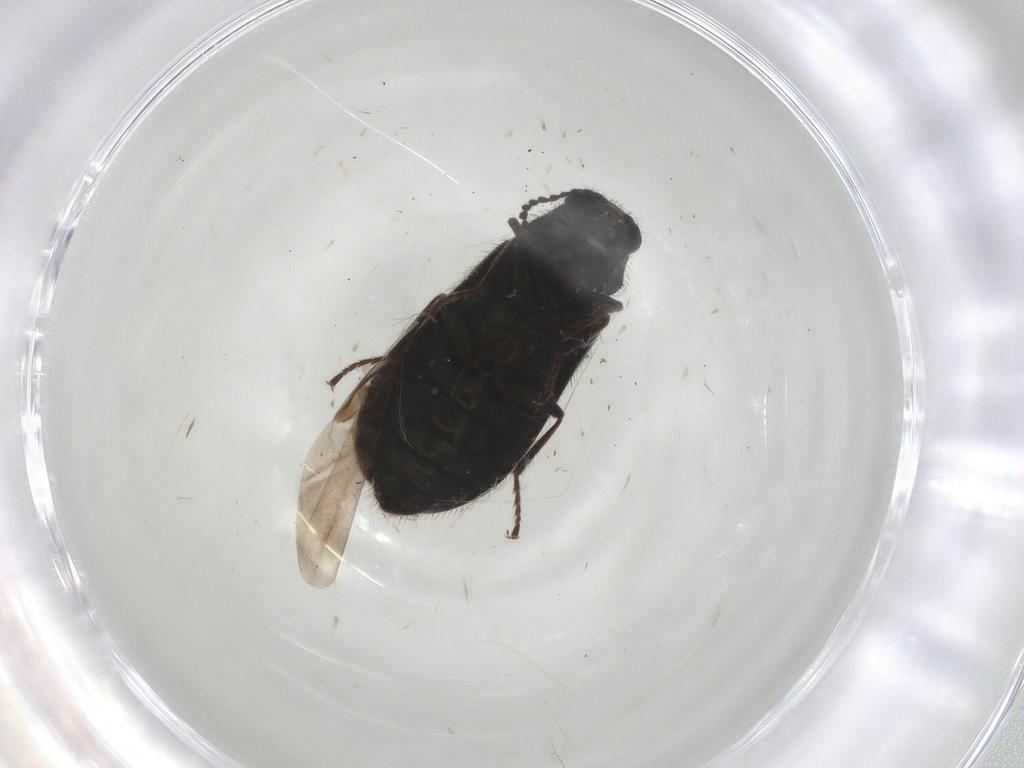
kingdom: Animalia
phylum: Arthropoda
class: Insecta
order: Coleoptera
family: Melyridae
